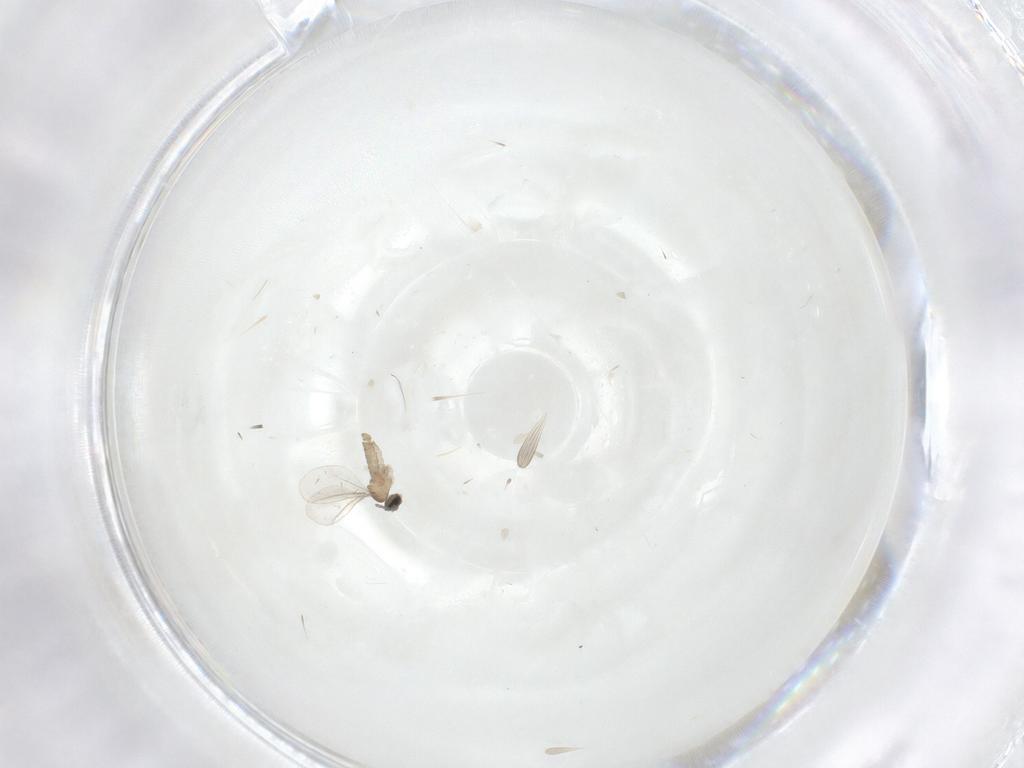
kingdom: Animalia
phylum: Arthropoda
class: Insecta
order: Diptera
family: Cecidomyiidae
